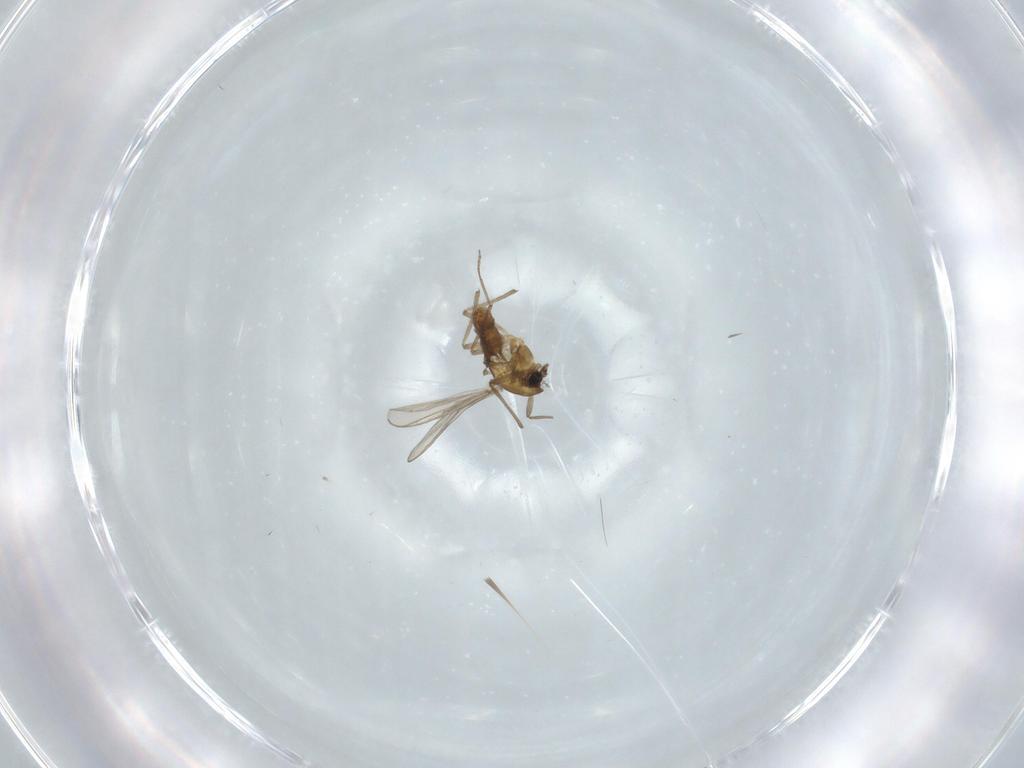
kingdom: Animalia
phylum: Arthropoda
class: Insecta
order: Diptera
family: Chironomidae
